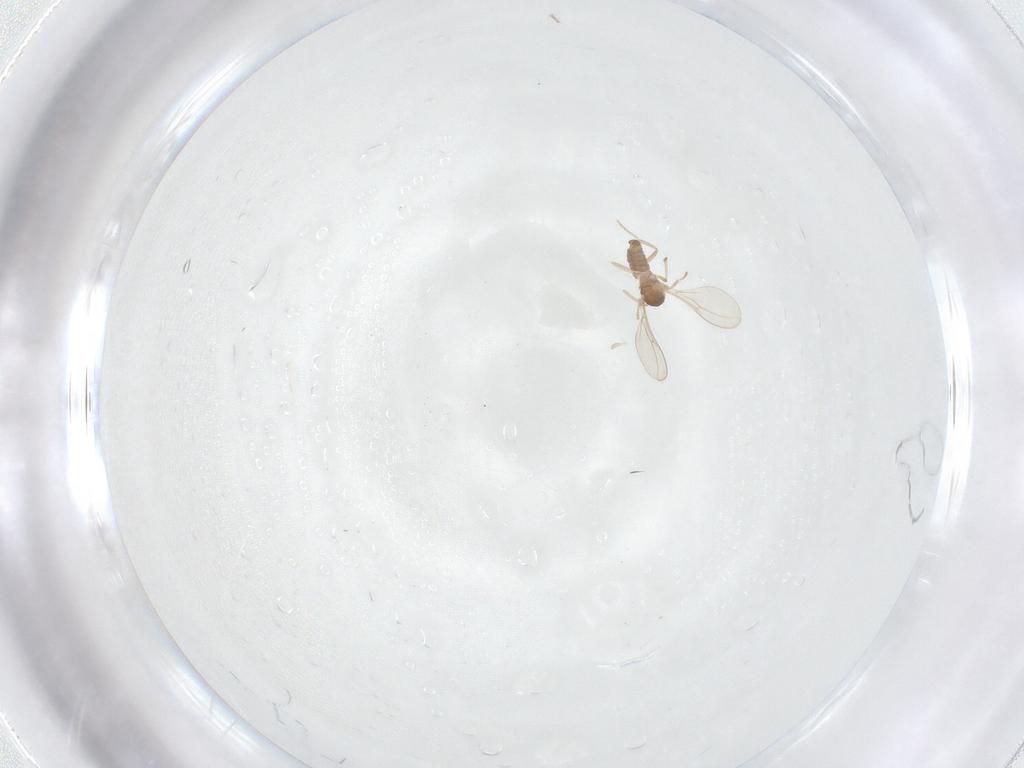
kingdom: Animalia
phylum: Arthropoda
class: Insecta
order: Diptera
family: Cecidomyiidae
